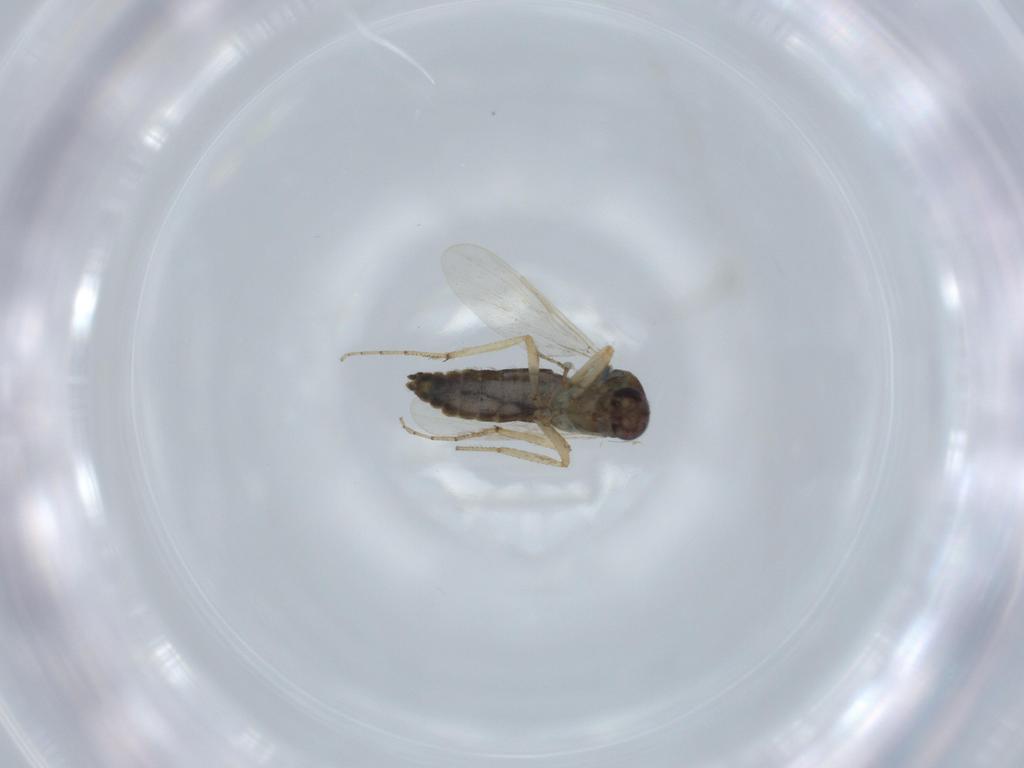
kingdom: Animalia
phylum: Arthropoda
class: Insecta
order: Diptera
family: Ceratopogonidae
